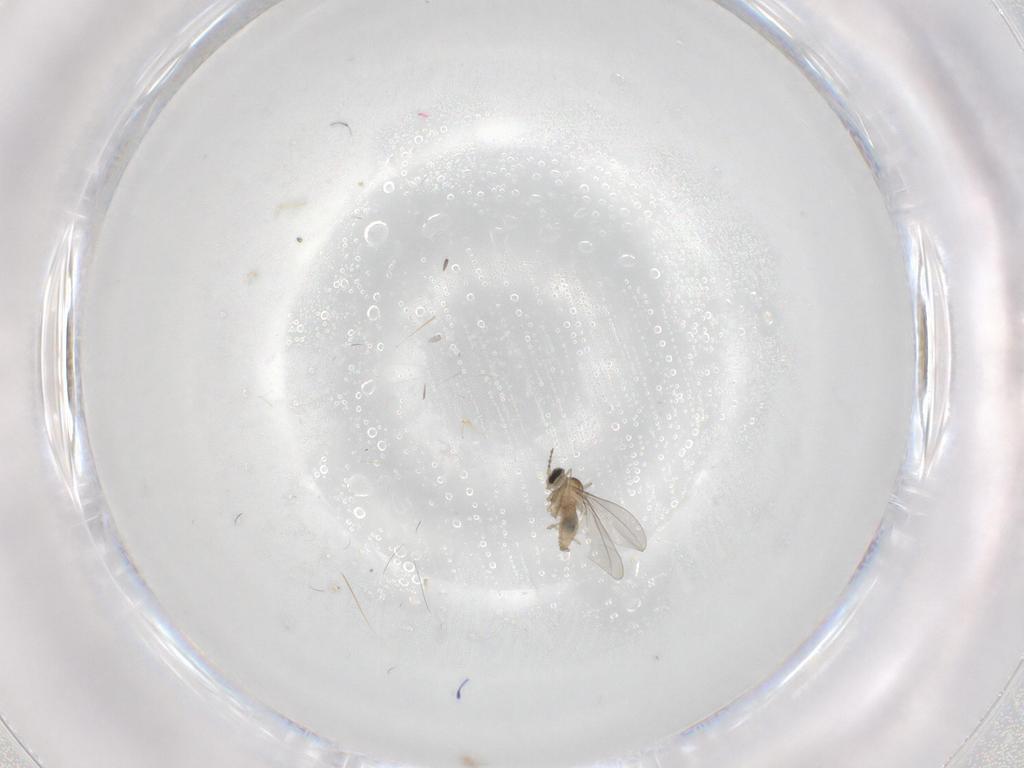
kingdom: Animalia
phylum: Arthropoda
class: Insecta
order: Diptera
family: Cecidomyiidae
